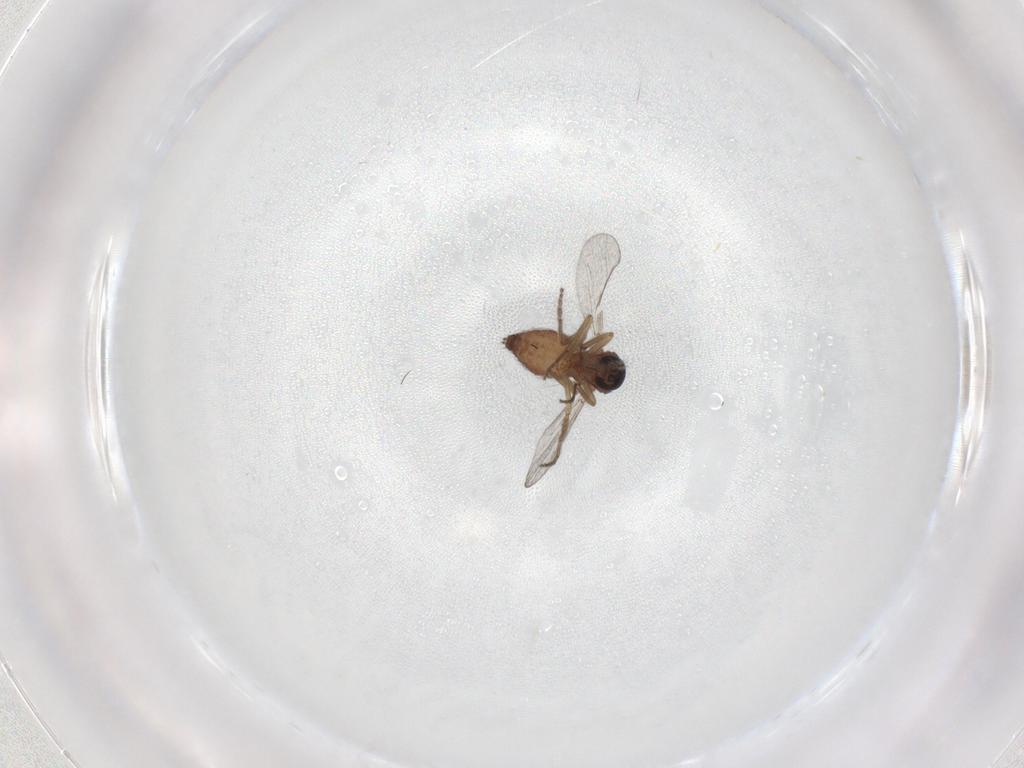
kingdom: Animalia
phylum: Arthropoda
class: Insecta
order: Diptera
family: Ceratopogonidae
